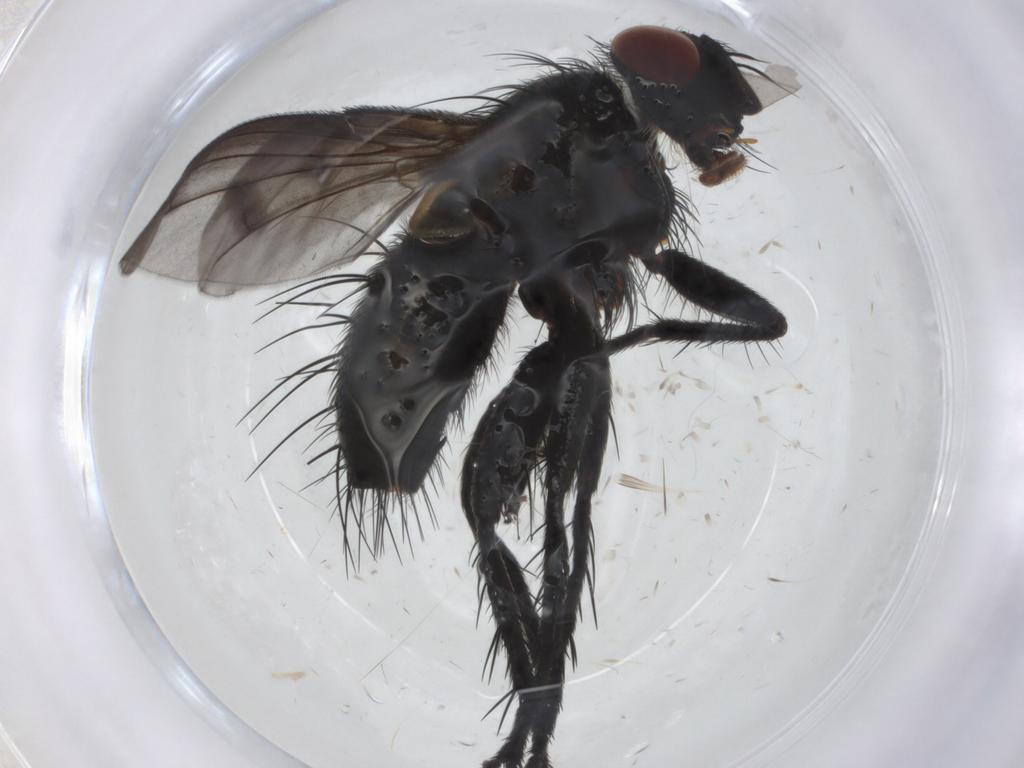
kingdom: Animalia
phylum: Arthropoda
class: Insecta
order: Diptera
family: Tachinidae
